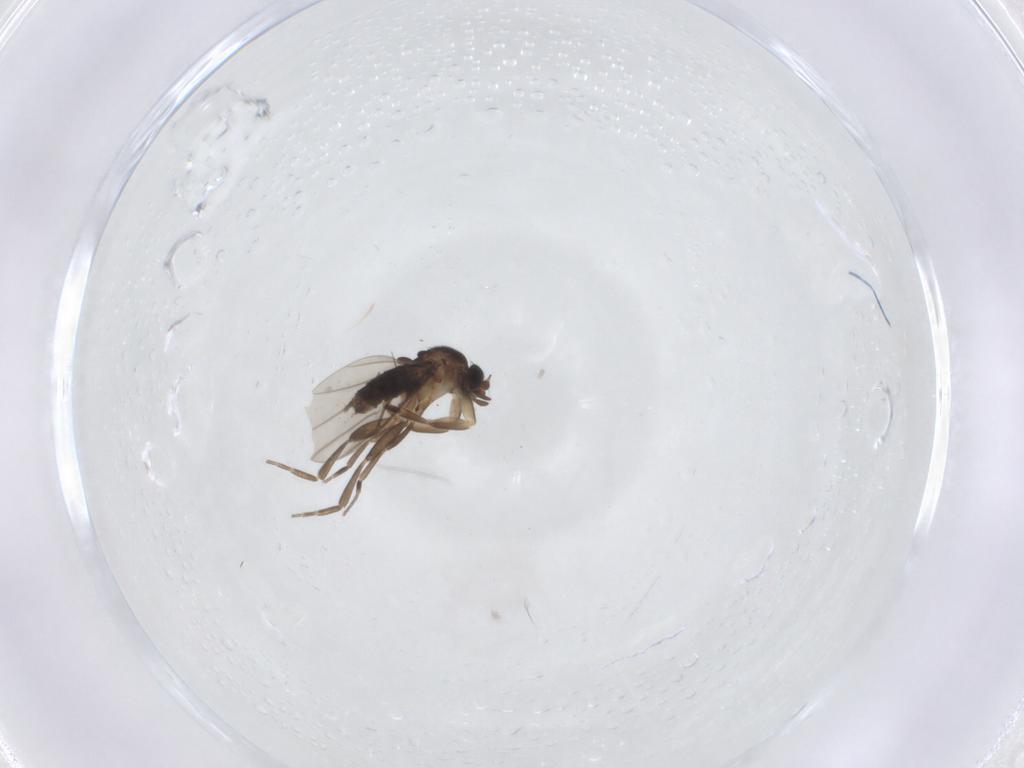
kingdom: Animalia
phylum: Arthropoda
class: Insecta
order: Diptera
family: Phoridae
